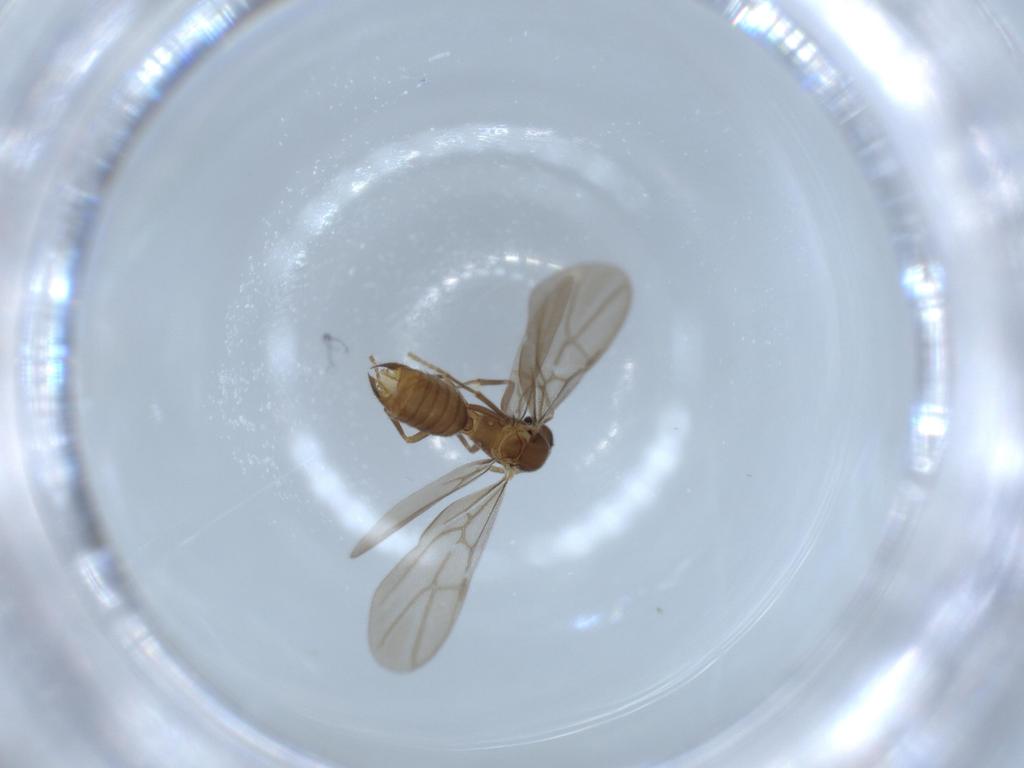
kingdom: Animalia
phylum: Arthropoda
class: Insecta
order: Hymenoptera
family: Formicidae
